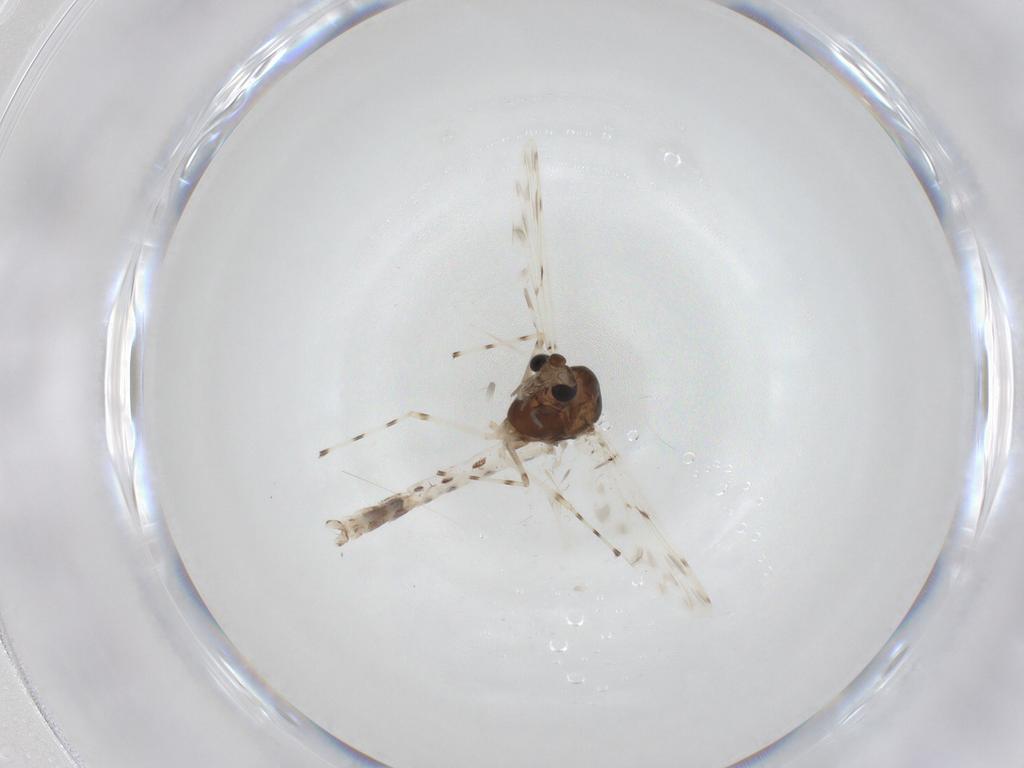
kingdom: Animalia
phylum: Arthropoda
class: Insecta
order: Diptera
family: Chironomidae
